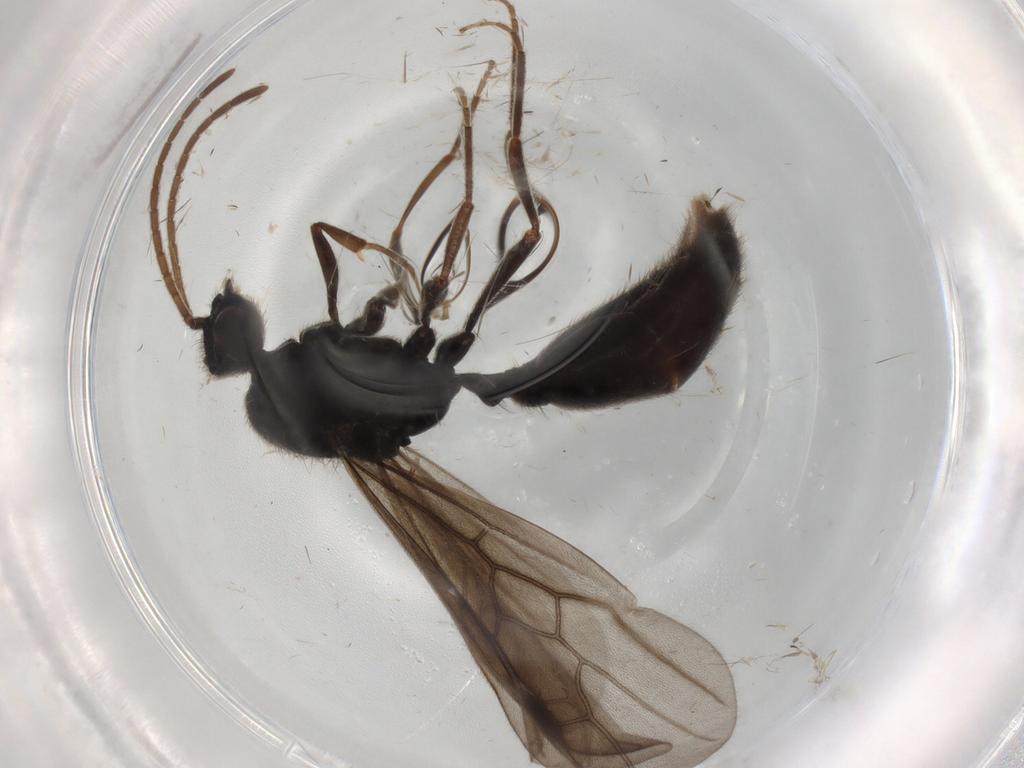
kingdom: Animalia
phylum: Arthropoda
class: Insecta
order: Hymenoptera
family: Formicidae
